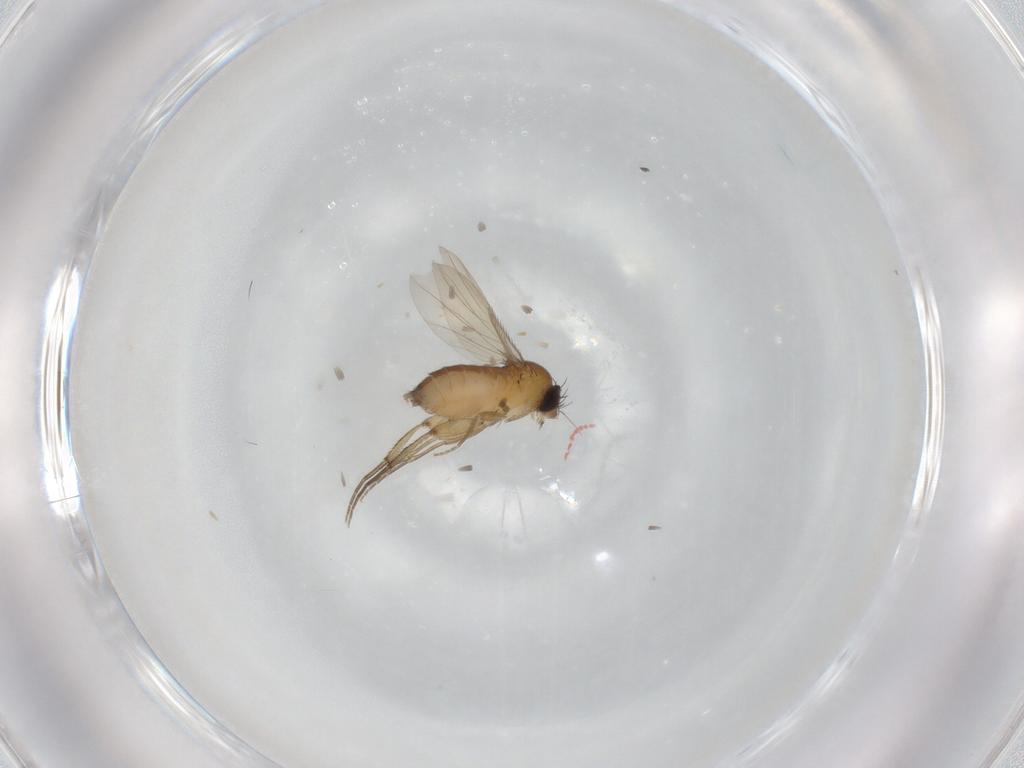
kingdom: Animalia
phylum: Arthropoda
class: Insecta
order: Diptera
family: Phoridae
